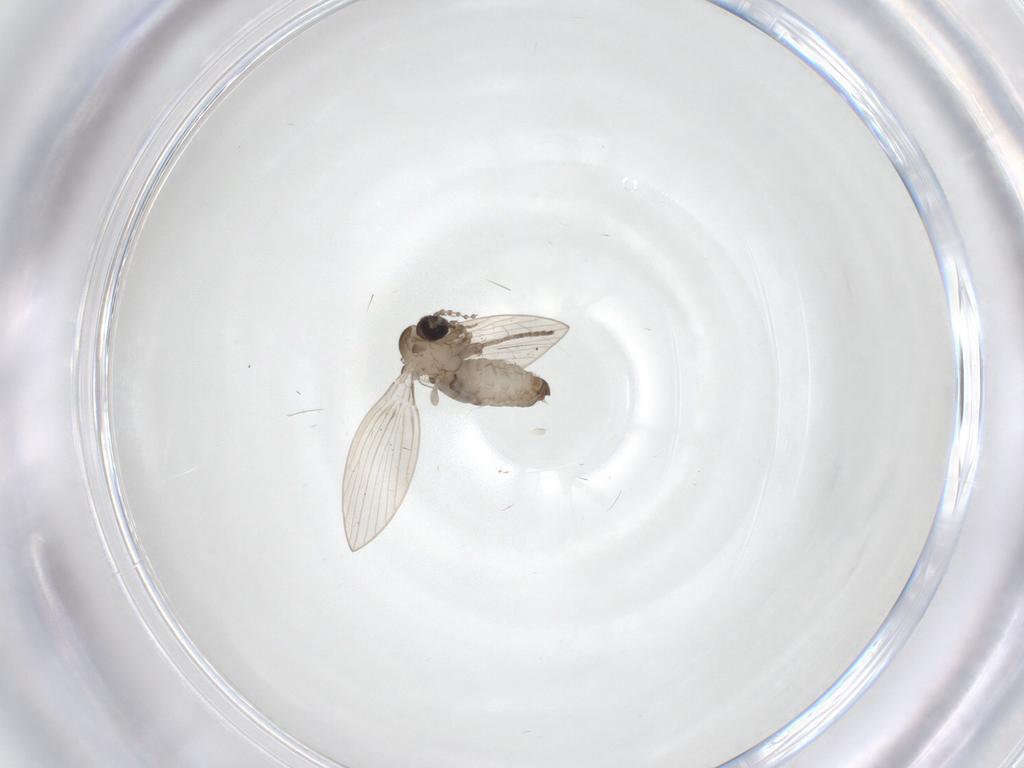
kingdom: Animalia
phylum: Arthropoda
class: Insecta
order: Diptera
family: Psychodidae
